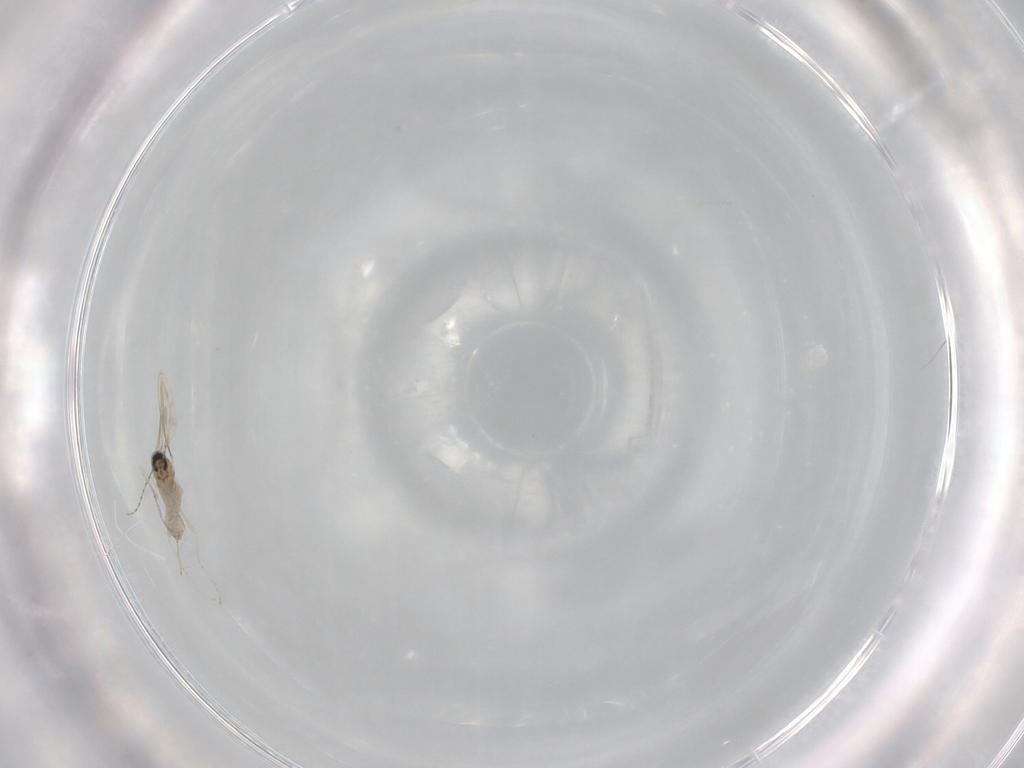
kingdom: Animalia
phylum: Arthropoda
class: Insecta
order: Diptera
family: Cecidomyiidae
